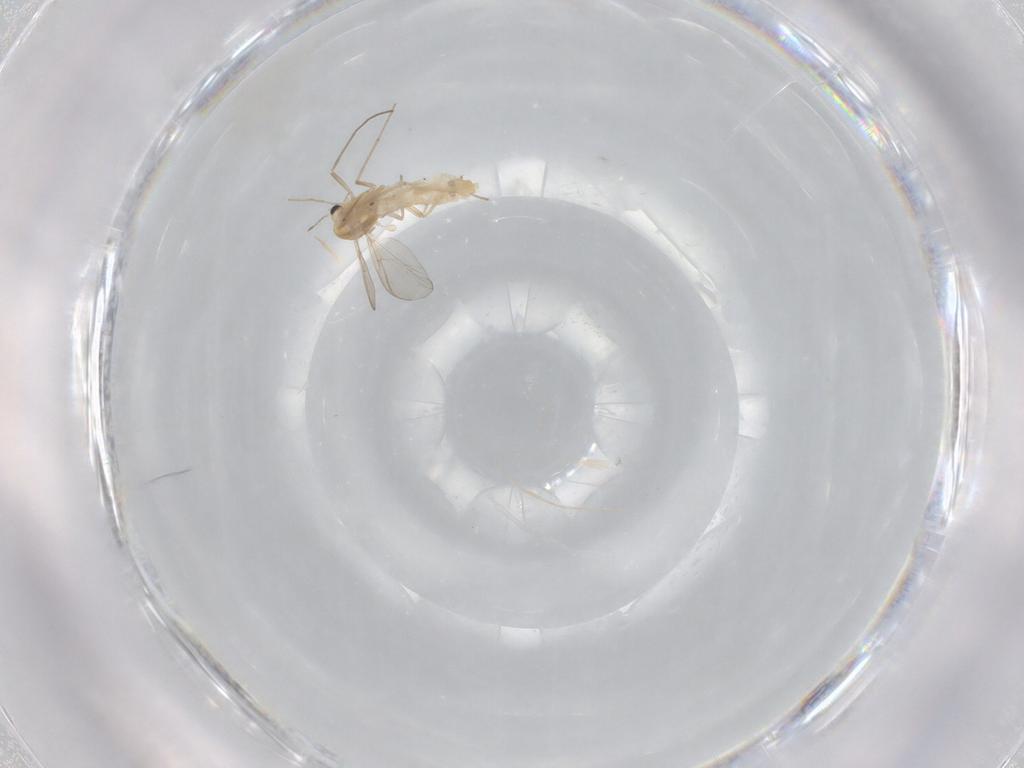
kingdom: Animalia
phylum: Arthropoda
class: Insecta
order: Diptera
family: Chironomidae
